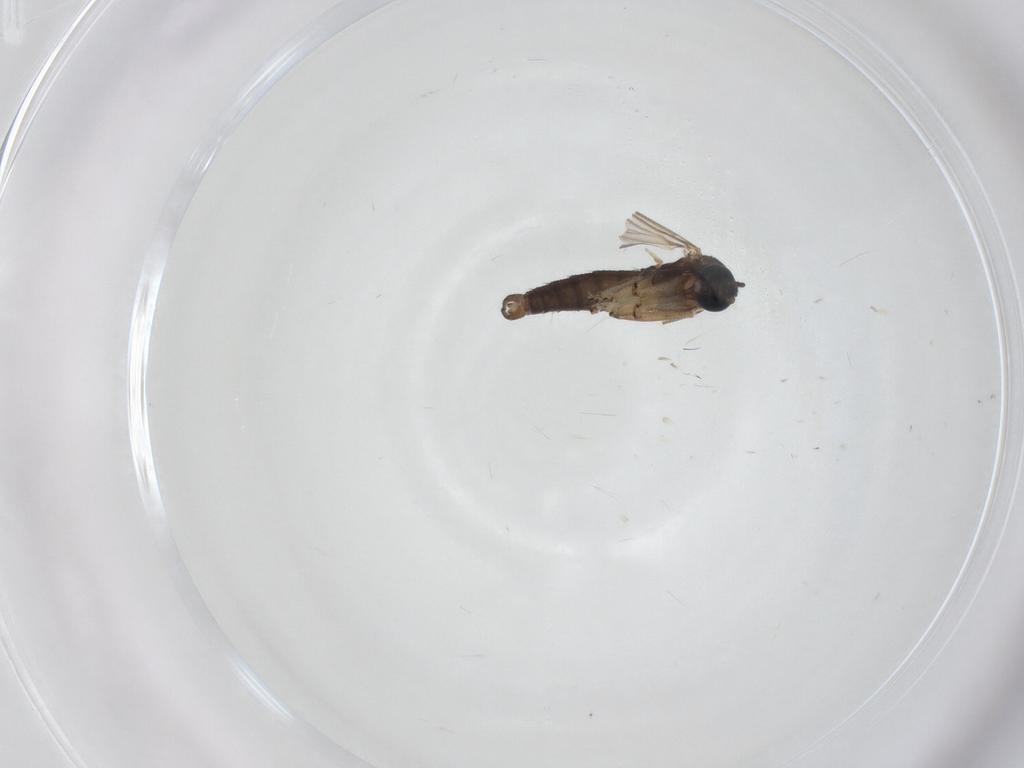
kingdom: Animalia
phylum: Arthropoda
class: Insecta
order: Diptera
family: Sciaridae
